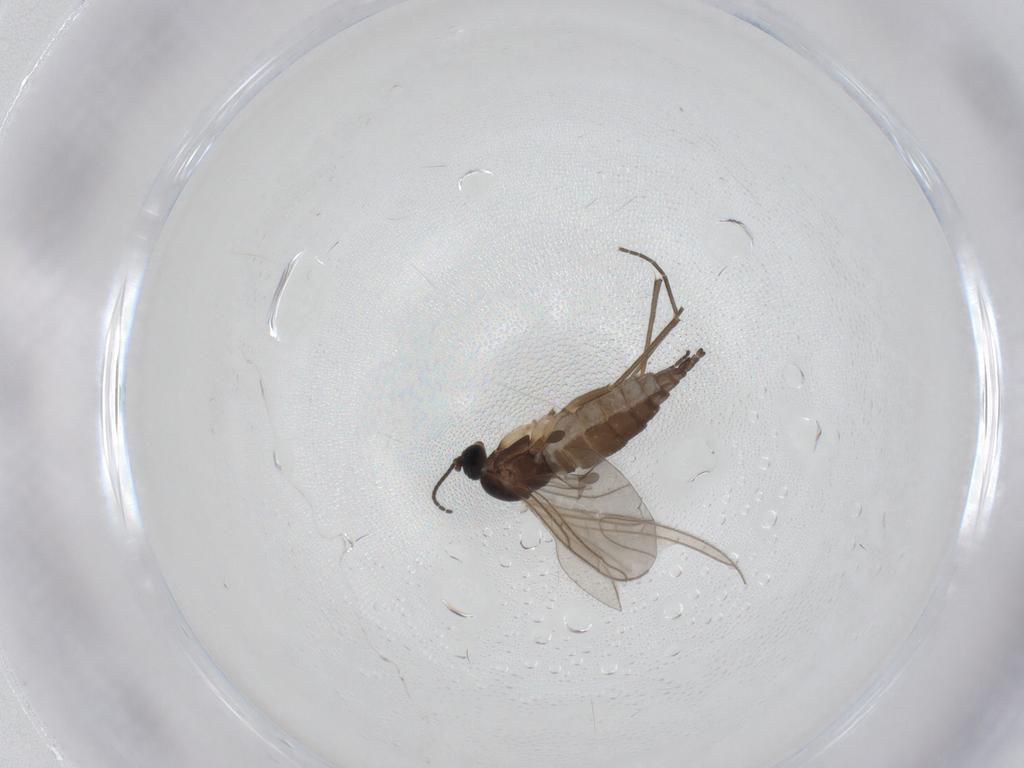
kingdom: Animalia
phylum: Arthropoda
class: Insecta
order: Diptera
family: Sciaridae
